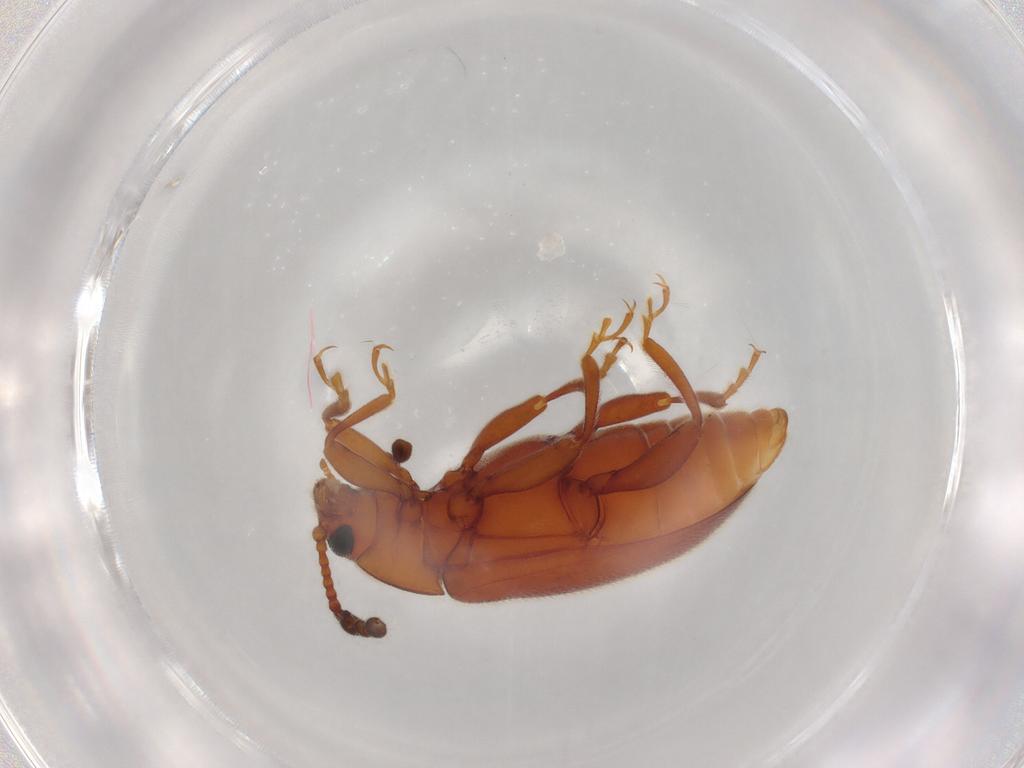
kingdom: Animalia
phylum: Arthropoda
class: Insecta
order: Coleoptera
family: Endomychidae
